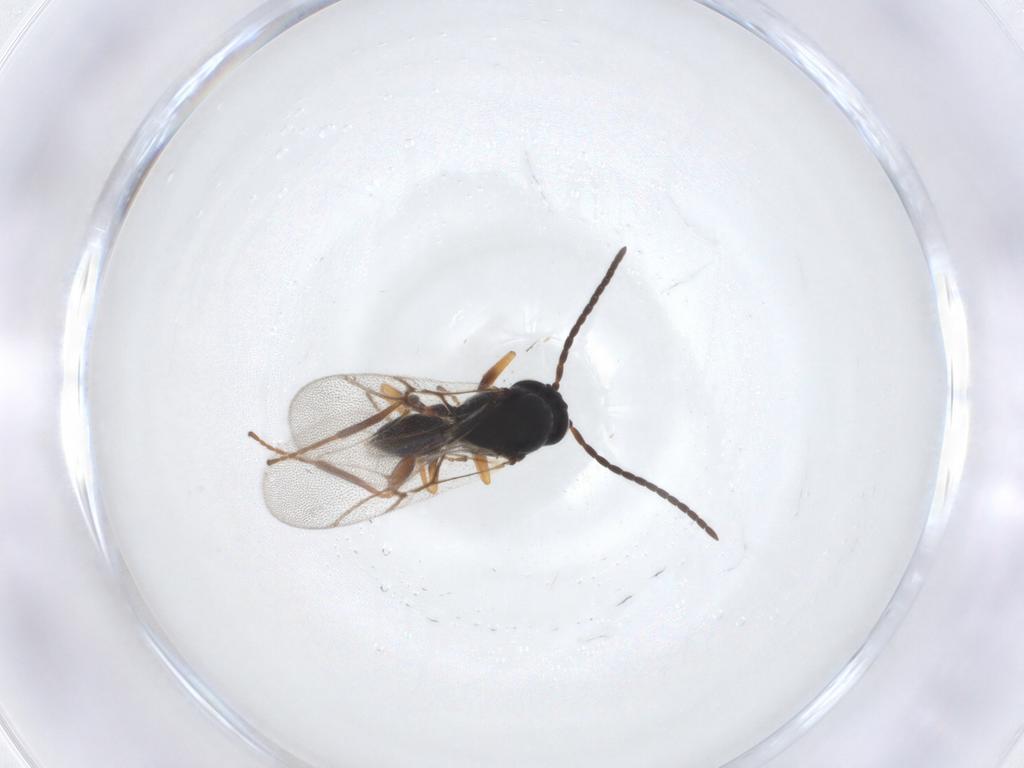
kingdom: Animalia
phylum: Arthropoda
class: Insecta
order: Hymenoptera
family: Cynipidae
